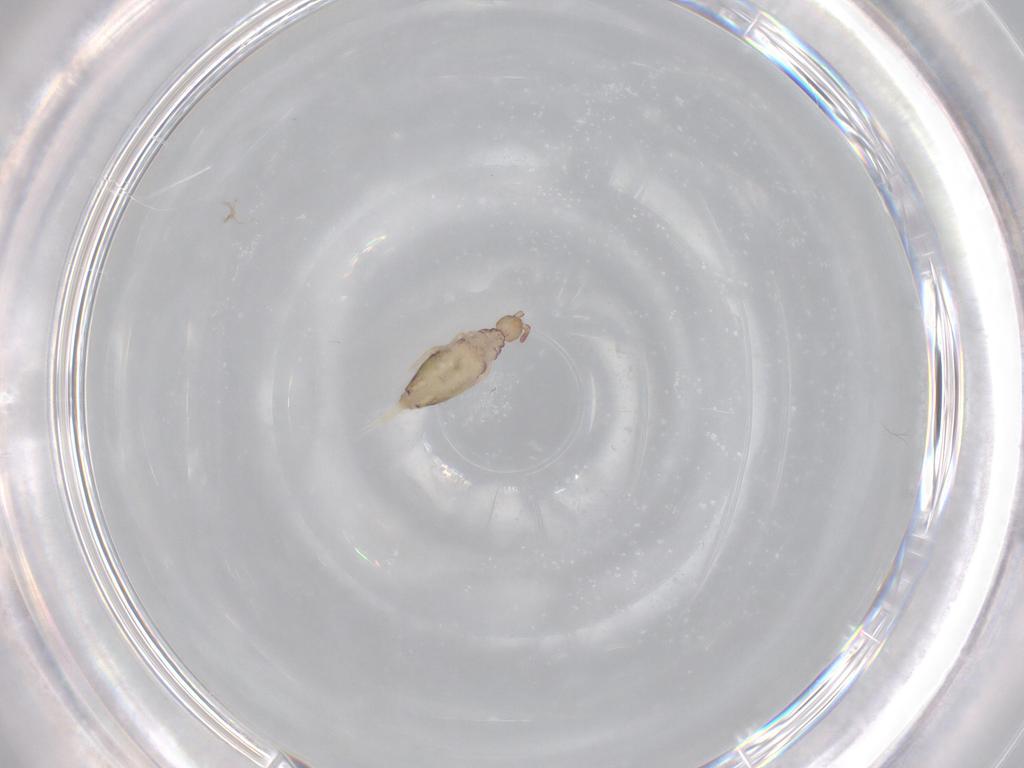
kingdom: Animalia
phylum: Arthropoda
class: Collembola
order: Entomobryomorpha
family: Entomobryidae
